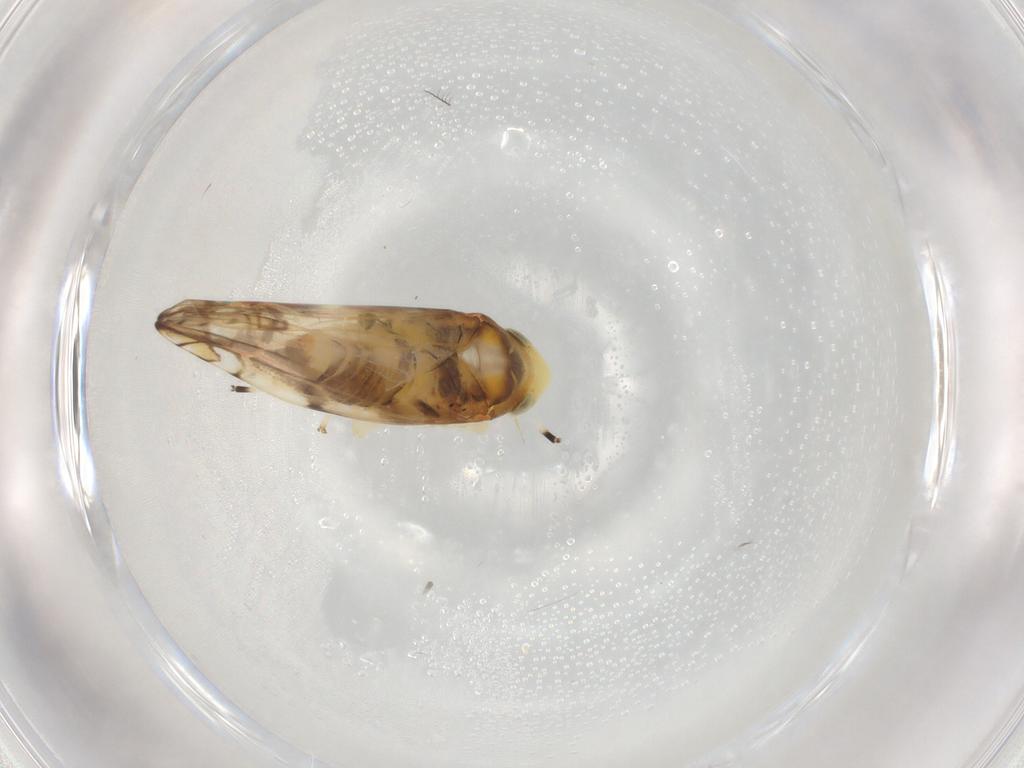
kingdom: Animalia
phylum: Arthropoda
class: Insecta
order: Hemiptera
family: Cicadellidae
